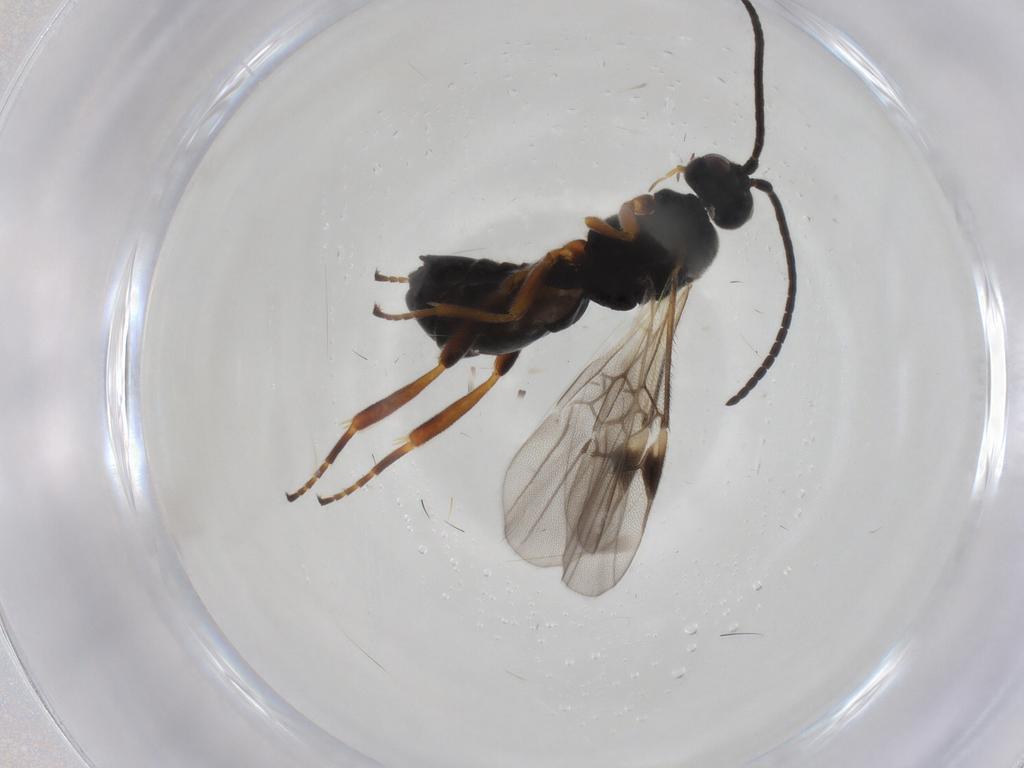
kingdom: Animalia
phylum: Arthropoda
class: Insecta
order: Hymenoptera
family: Braconidae
